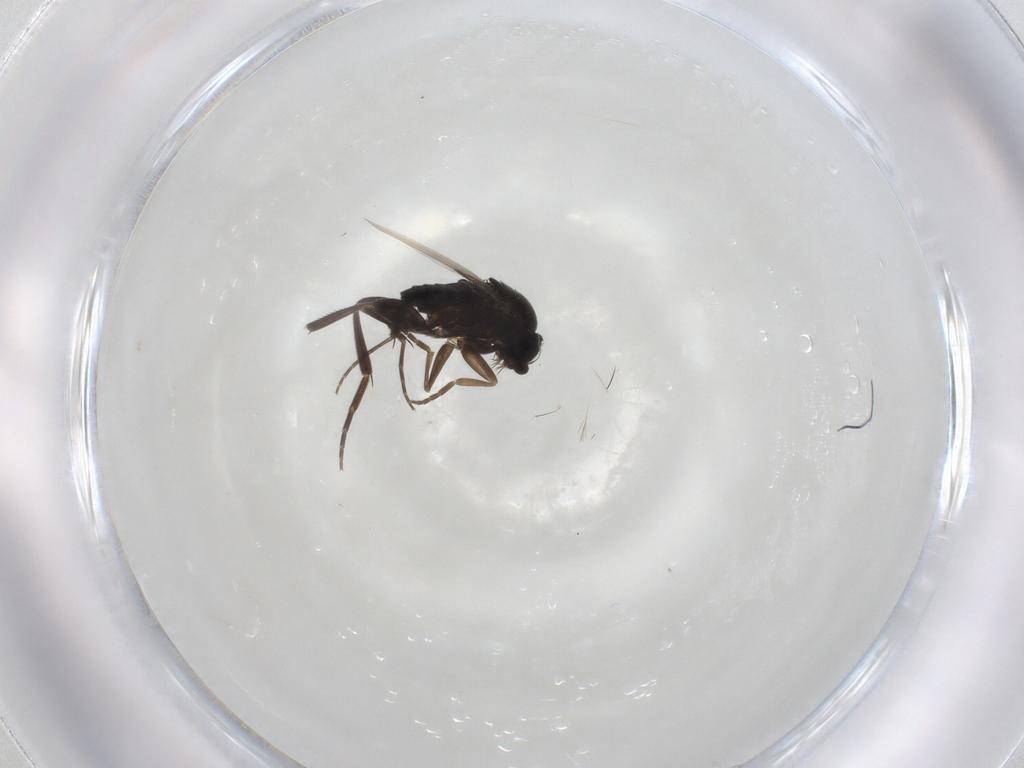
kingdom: Animalia
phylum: Arthropoda
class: Insecta
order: Diptera
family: Phoridae
